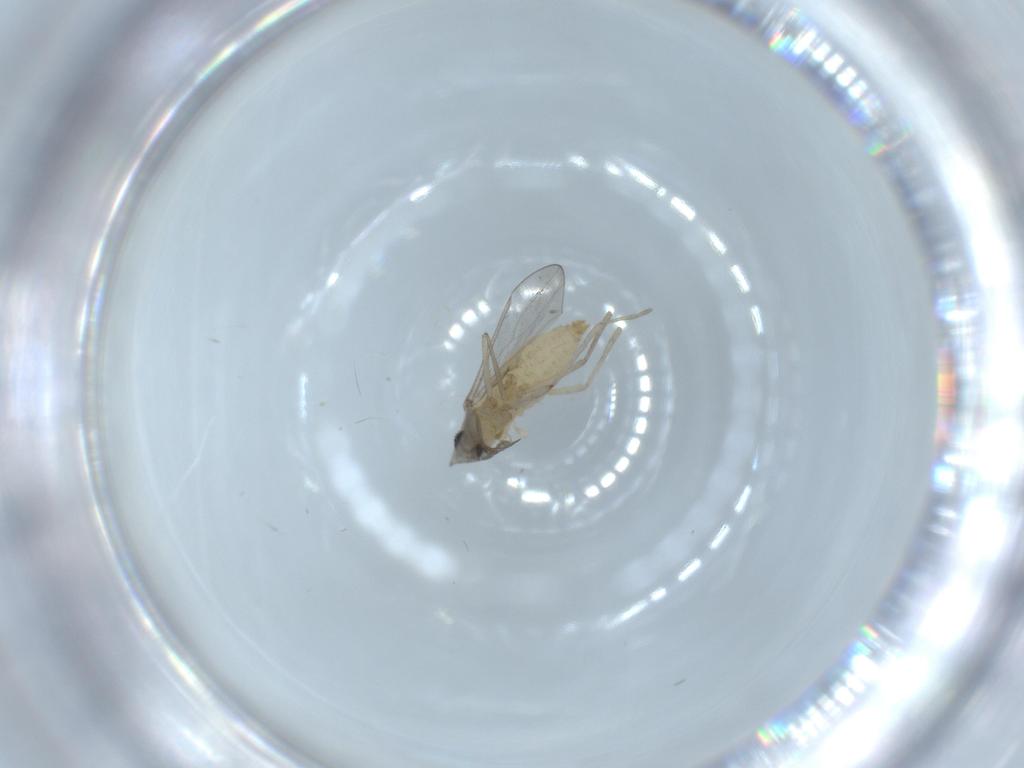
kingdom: Animalia
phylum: Arthropoda
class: Insecta
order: Diptera
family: Cecidomyiidae
